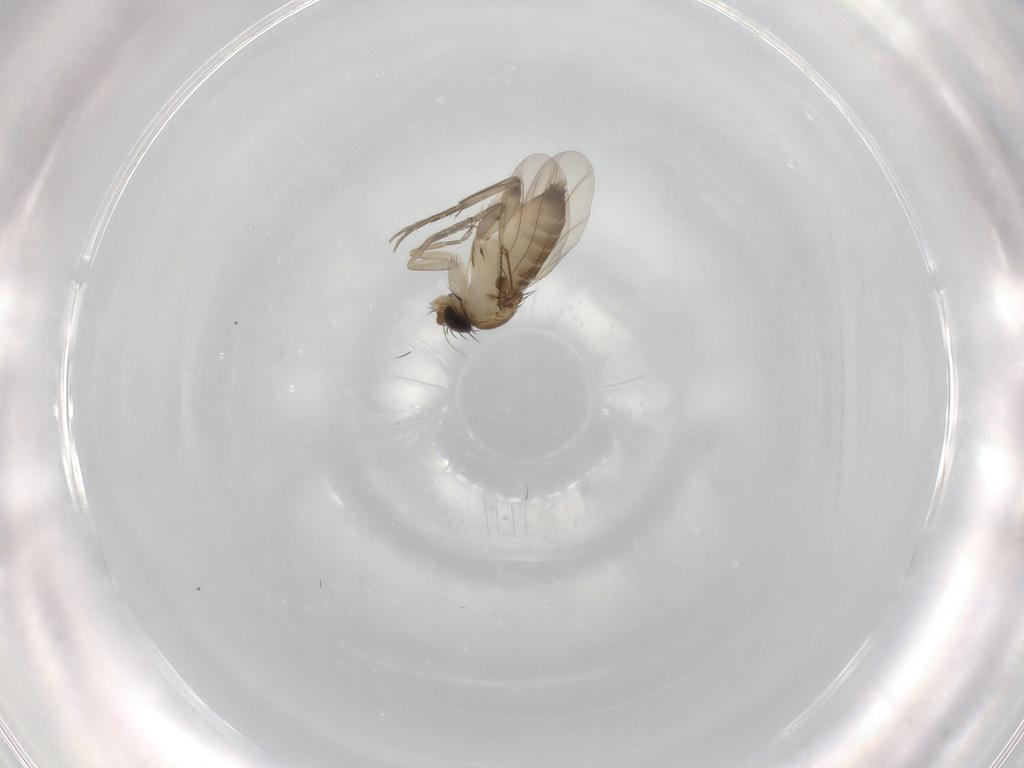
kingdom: Animalia
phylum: Arthropoda
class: Insecta
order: Diptera
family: Phoridae
